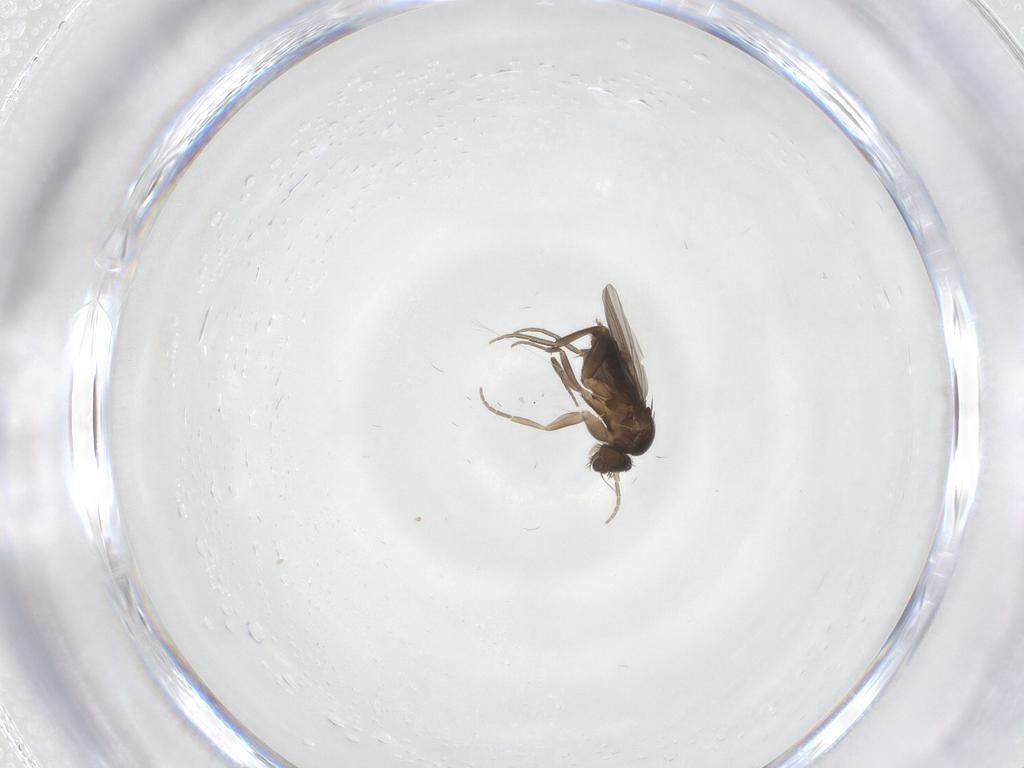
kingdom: Animalia
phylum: Arthropoda
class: Insecta
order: Diptera
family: Phoridae
